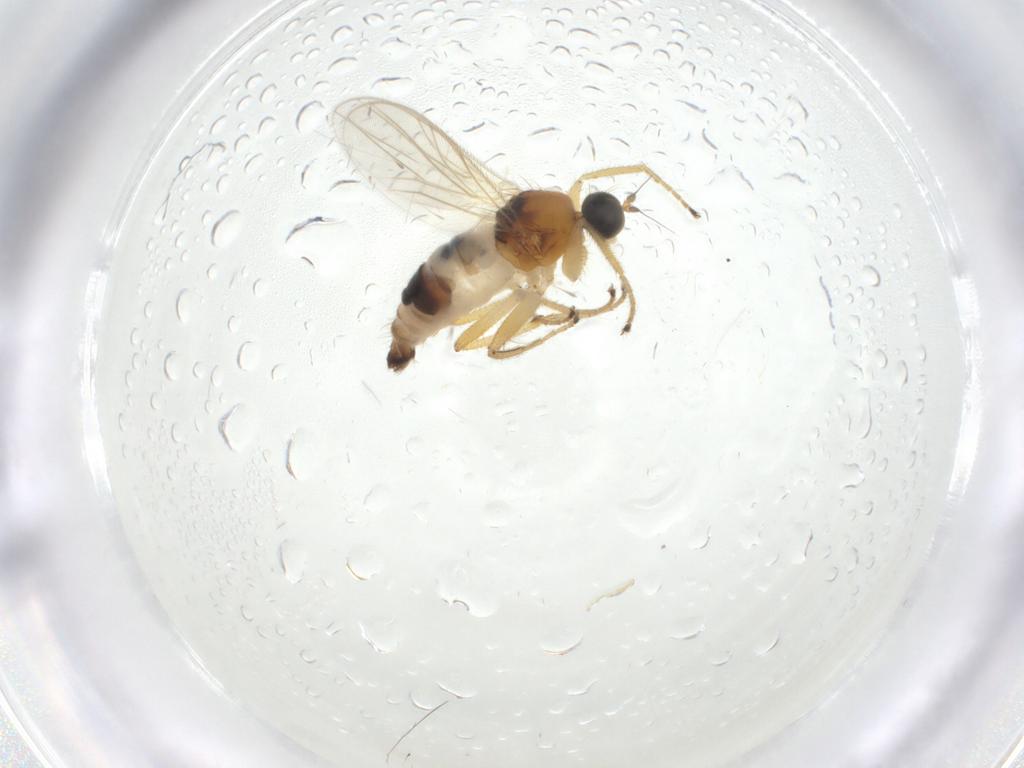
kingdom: Animalia
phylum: Arthropoda
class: Insecta
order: Diptera
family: Hybotidae
